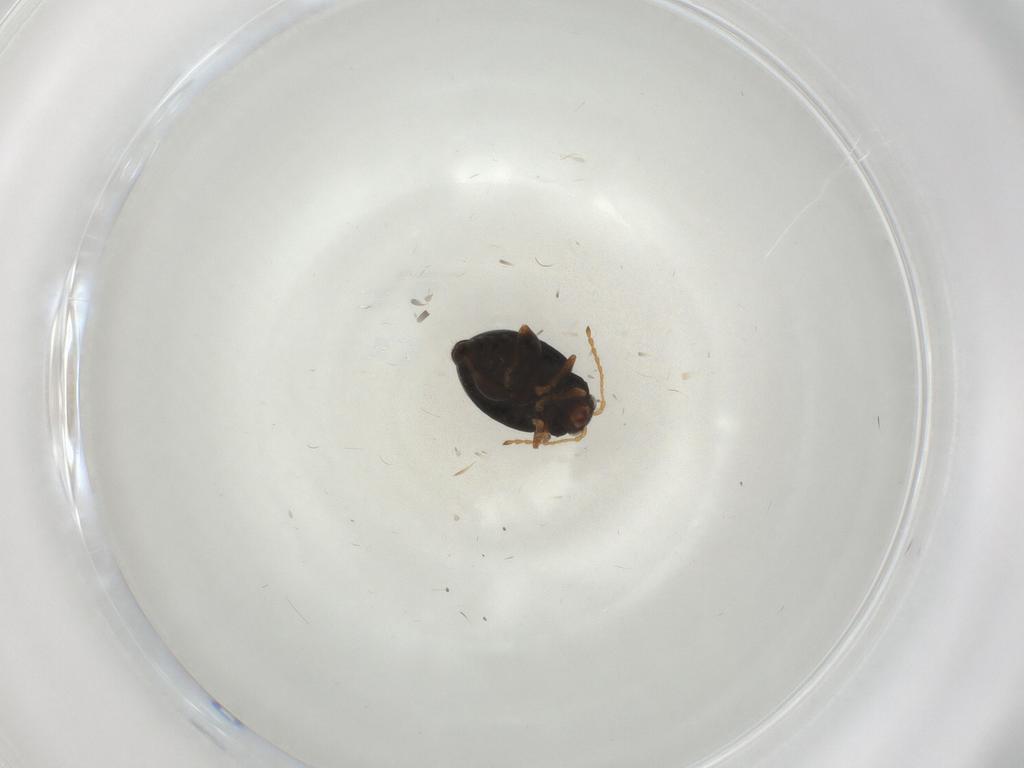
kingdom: Animalia
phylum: Arthropoda
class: Insecta
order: Coleoptera
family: Chrysomelidae
